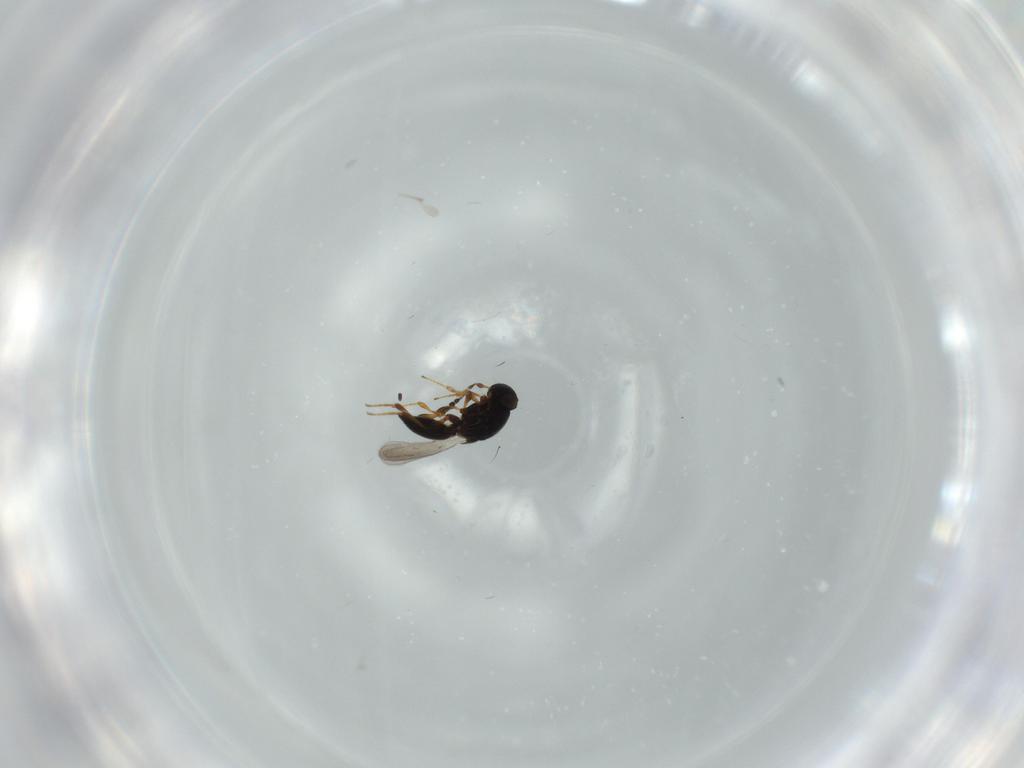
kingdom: Animalia
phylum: Arthropoda
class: Insecta
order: Hymenoptera
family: Platygastridae
